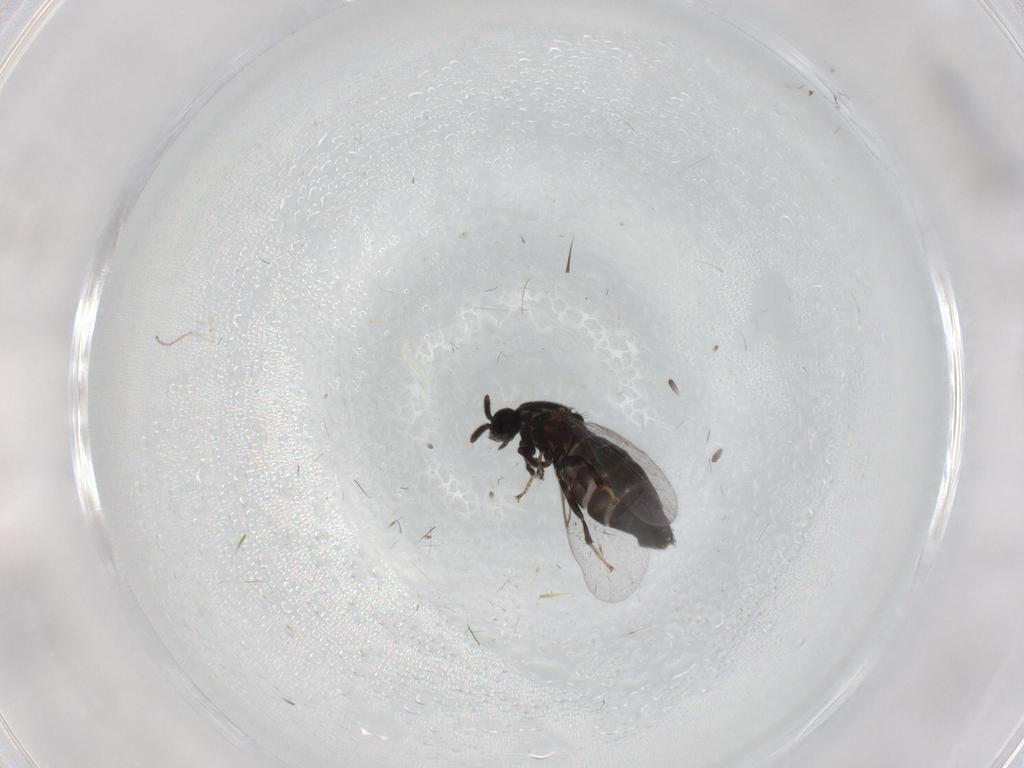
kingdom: Animalia
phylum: Arthropoda
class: Insecta
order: Diptera
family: Scatopsidae
